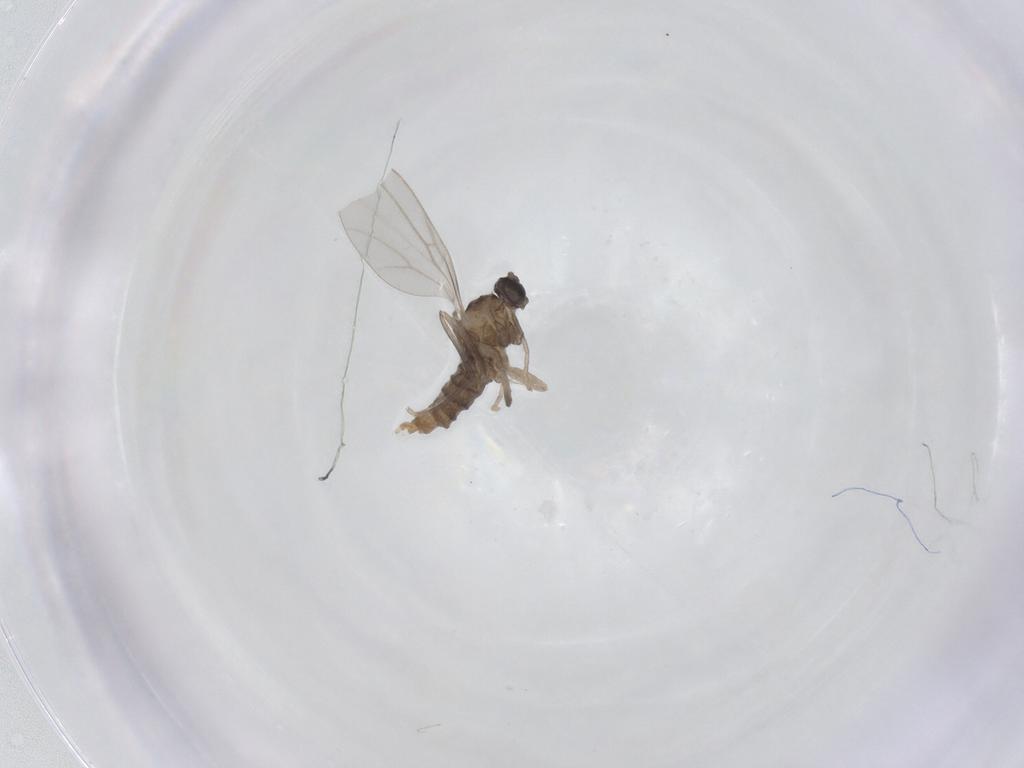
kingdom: Animalia
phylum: Arthropoda
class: Insecta
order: Diptera
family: Cecidomyiidae
